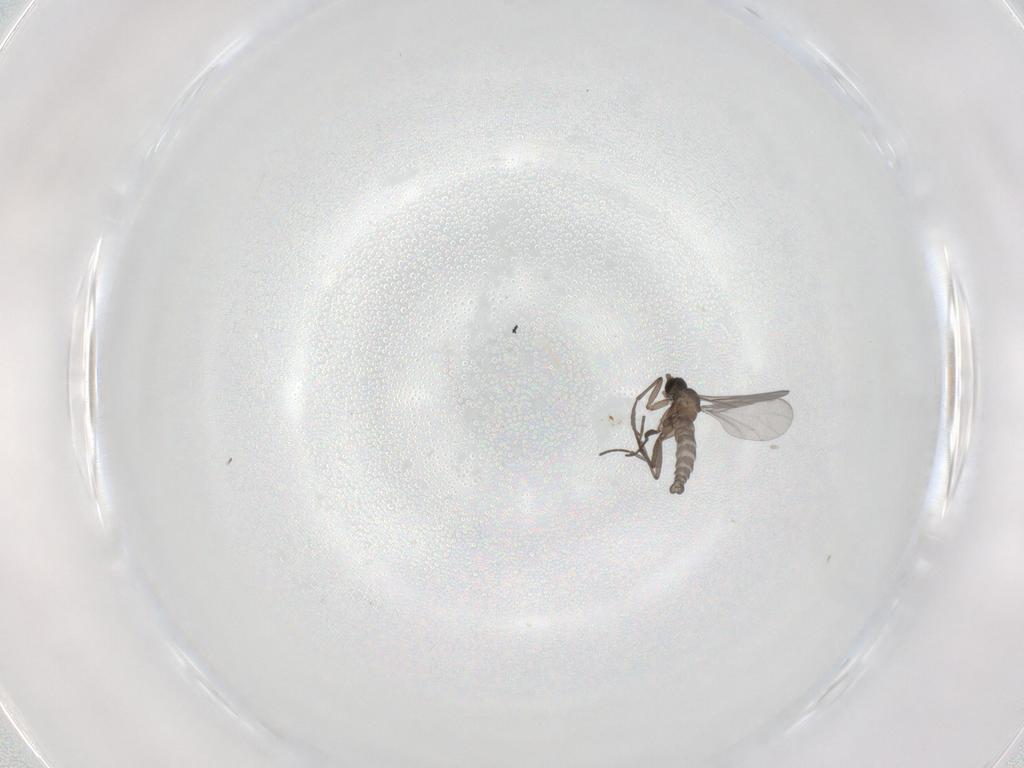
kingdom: Animalia
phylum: Arthropoda
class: Insecta
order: Diptera
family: Sciaridae
